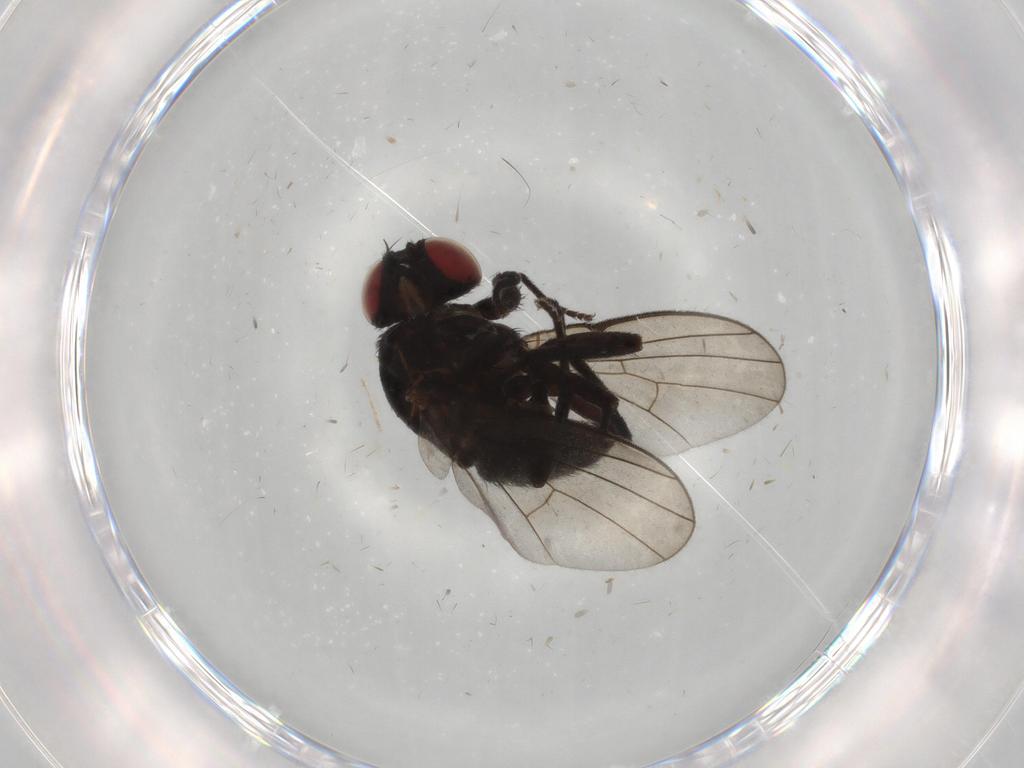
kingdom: Animalia
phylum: Arthropoda
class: Insecta
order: Diptera
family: Agromyzidae
